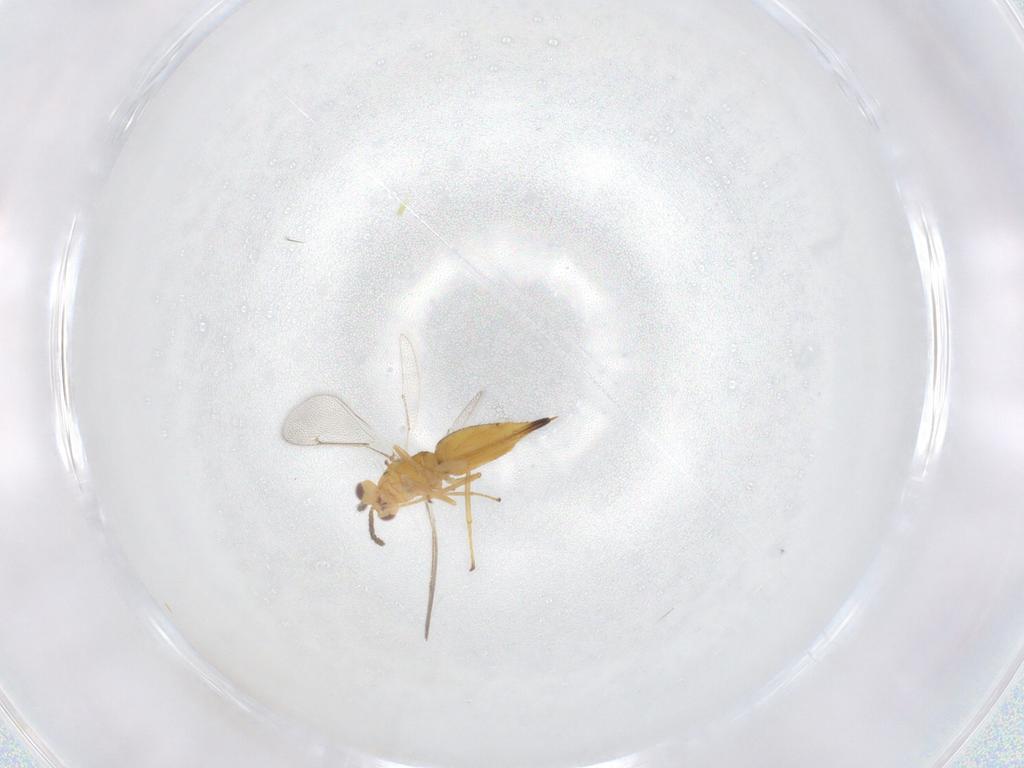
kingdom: Animalia
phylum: Arthropoda
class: Insecta
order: Hymenoptera
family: Eulophidae
